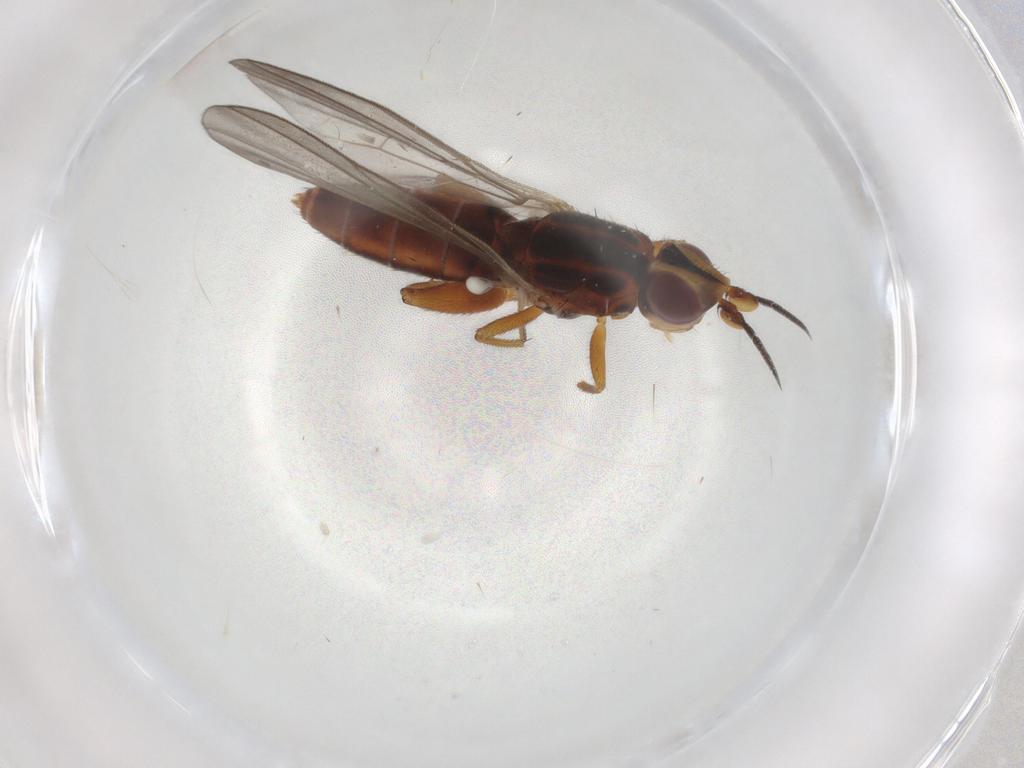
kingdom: Animalia
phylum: Arthropoda
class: Insecta
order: Diptera
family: Chloropidae
